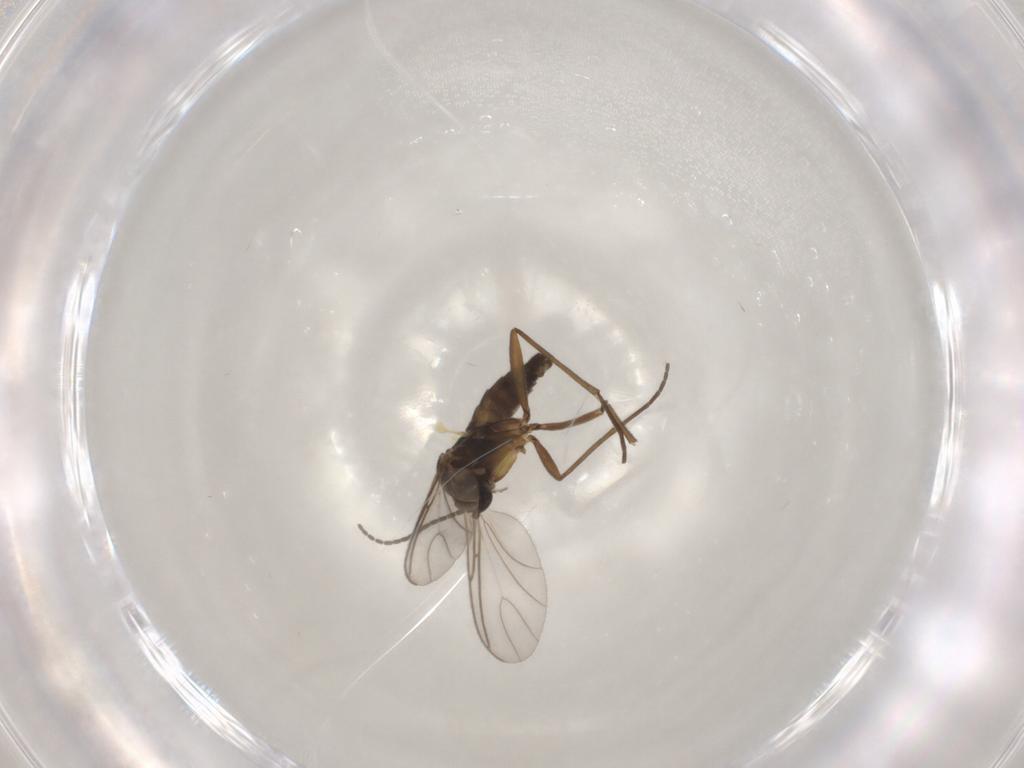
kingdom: Animalia
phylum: Arthropoda
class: Insecta
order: Diptera
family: Sciaridae
